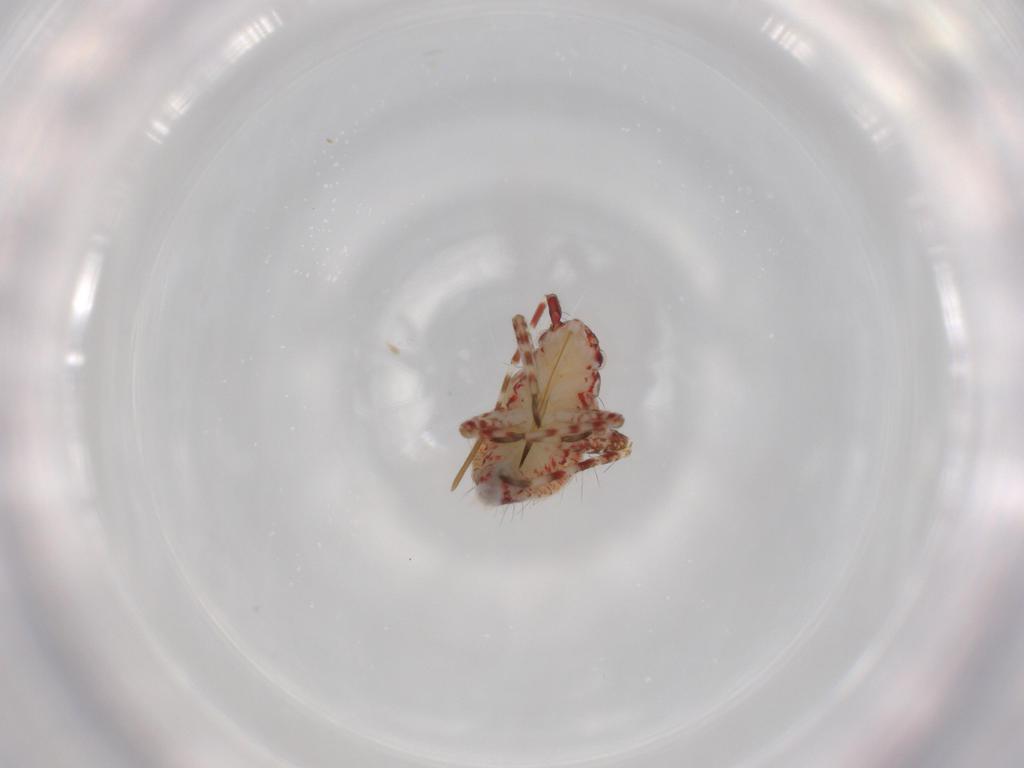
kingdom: Animalia
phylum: Arthropoda
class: Insecta
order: Hemiptera
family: Miridae
